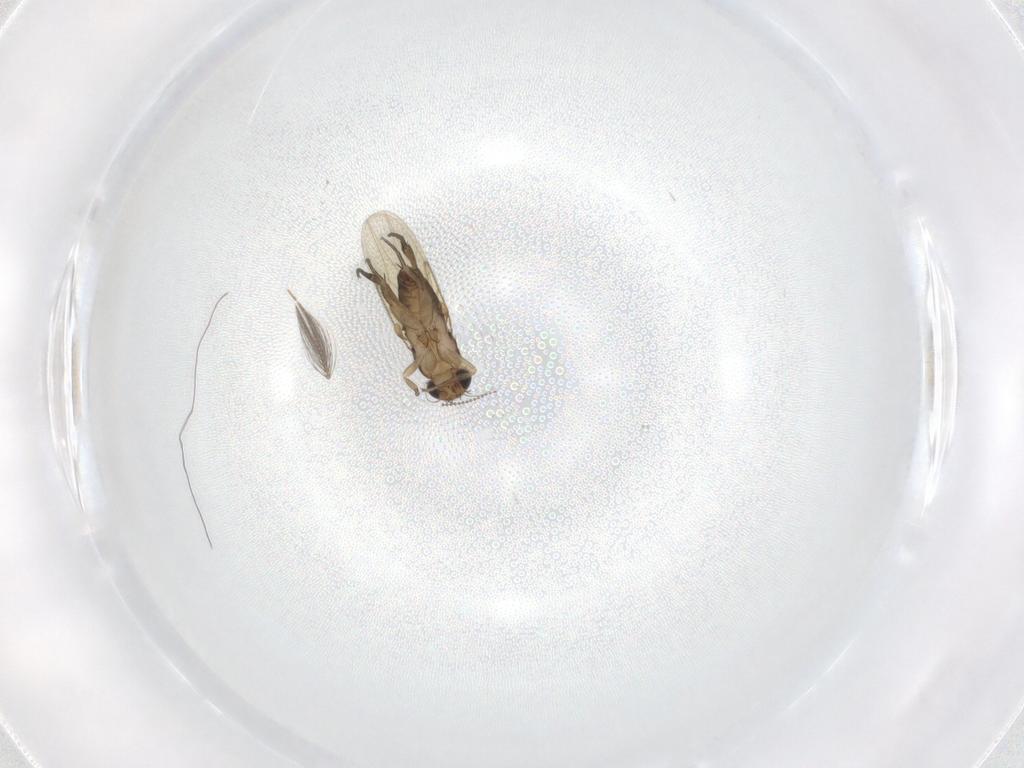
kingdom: Animalia
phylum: Arthropoda
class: Insecta
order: Diptera
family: Phoridae
